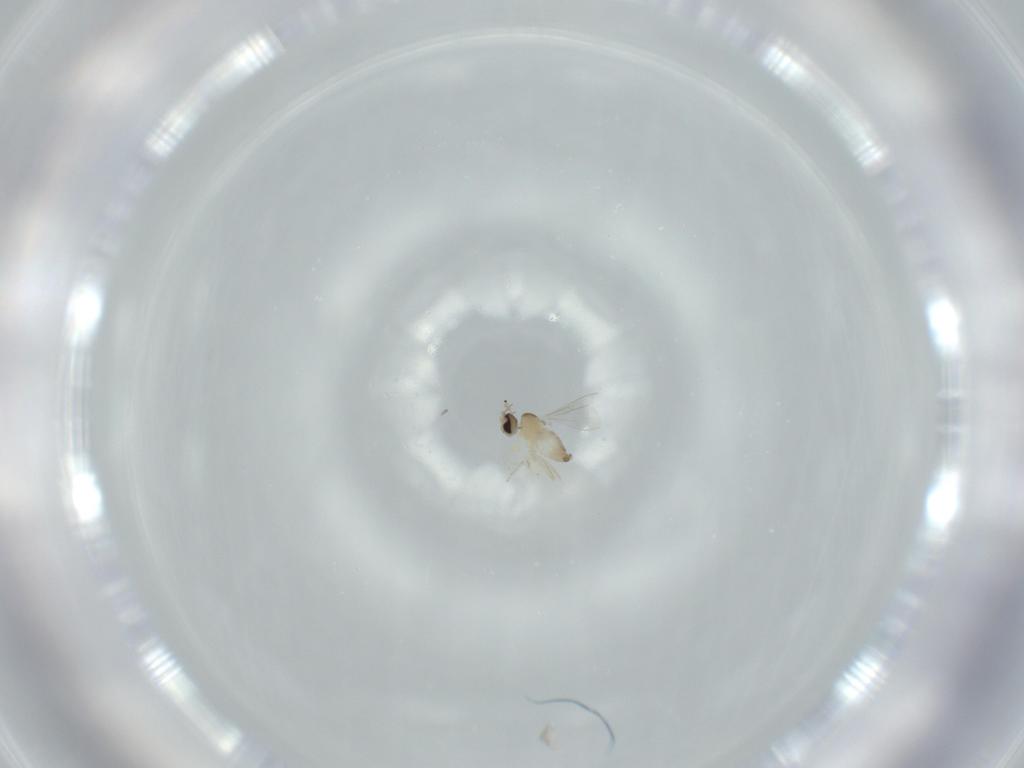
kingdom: Animalia
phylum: Arthropoda
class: Insecta
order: Diptera
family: Cecidomyiidae
